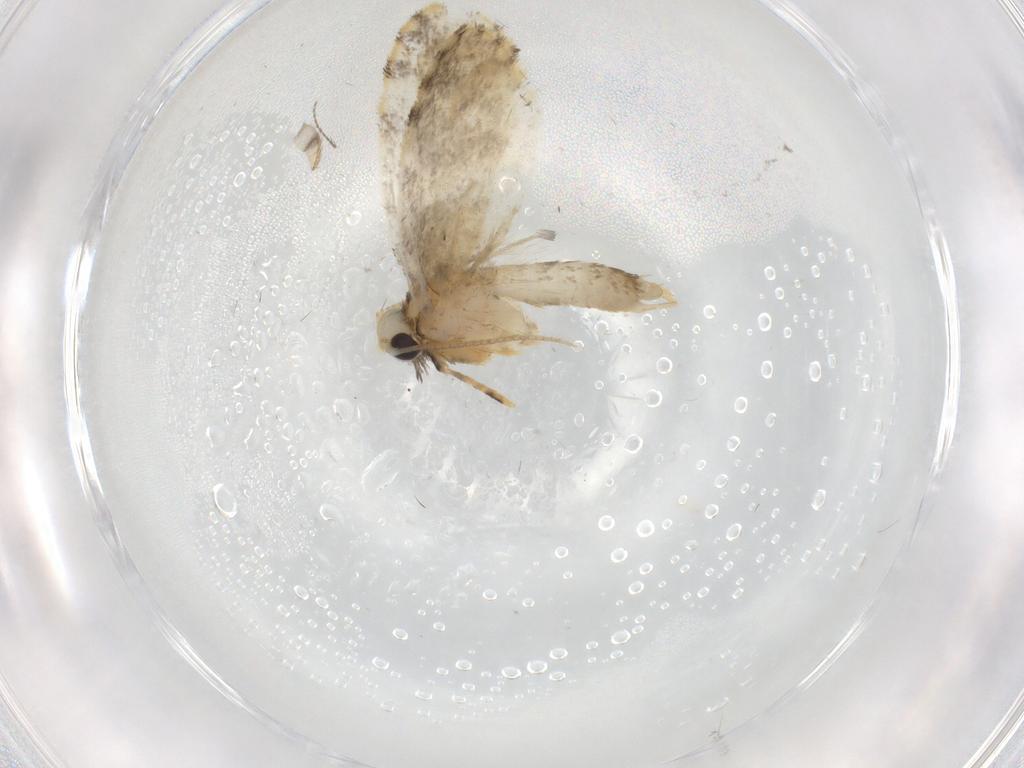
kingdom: Animalia
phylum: Arthropoda
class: Insecta
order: Lepidoptera
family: Psychidae
